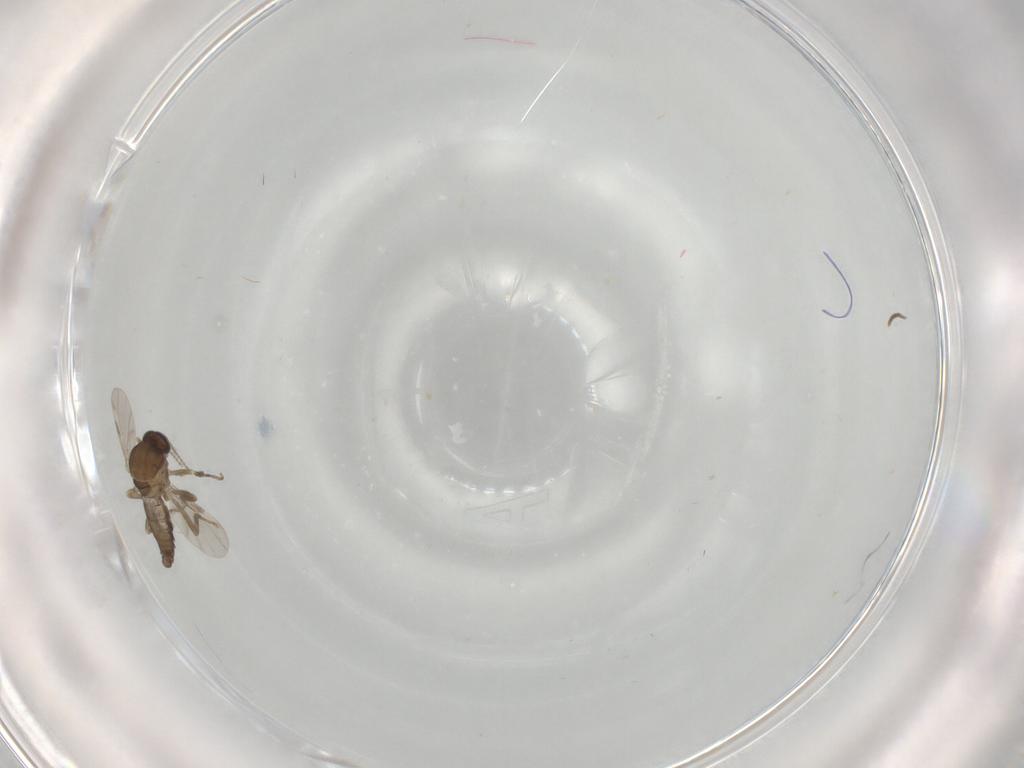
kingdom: Animalia
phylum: Arthropoda
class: Insecta
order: Diptera
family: Ceratopogonidae
